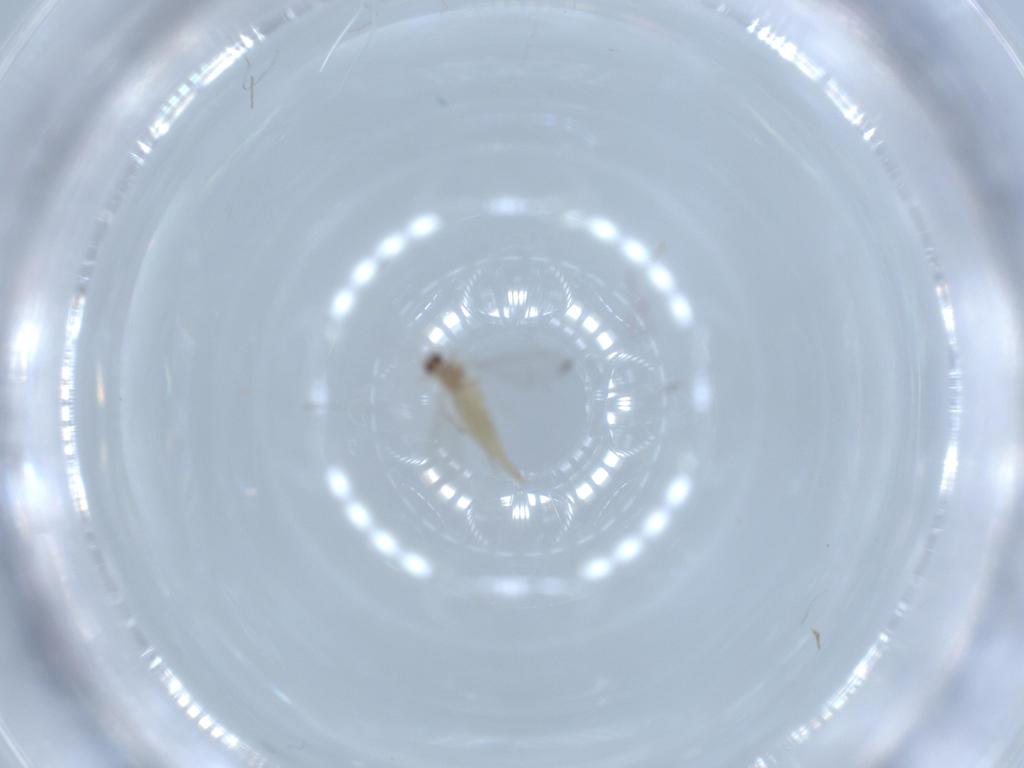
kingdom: Animalia
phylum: Arthropoda
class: Insecta
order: Diptera
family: Cecidomyiidae
